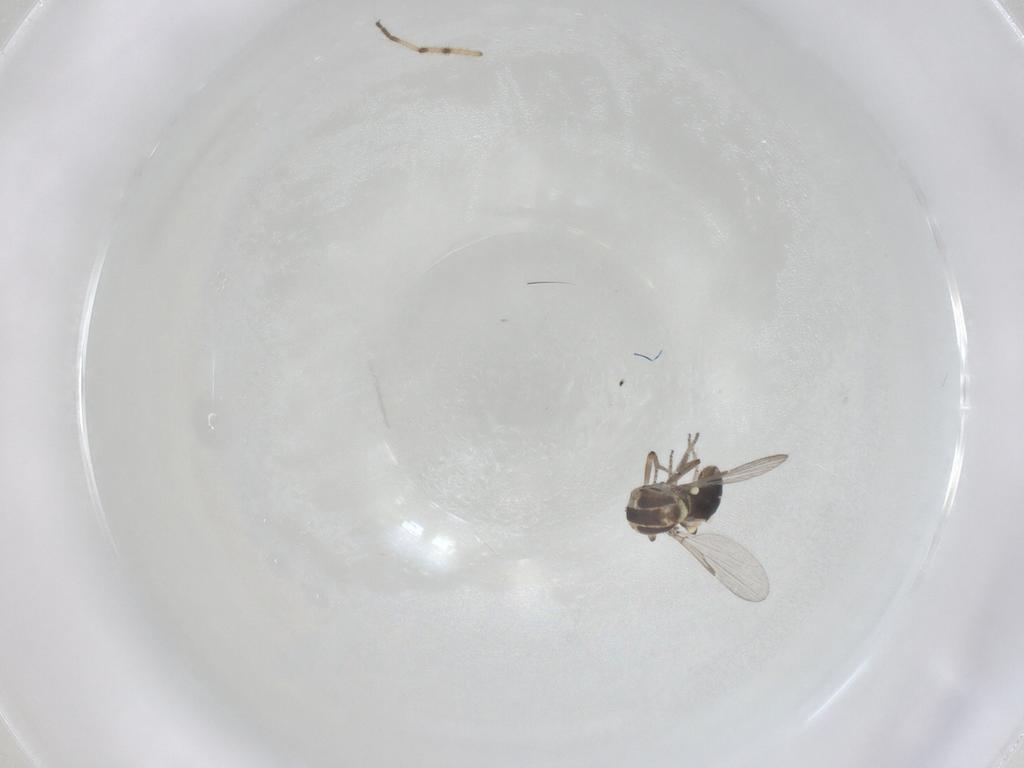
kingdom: Animalia
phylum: Arthropoda
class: Insecta
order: Diptera
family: Ceratopogonidae
